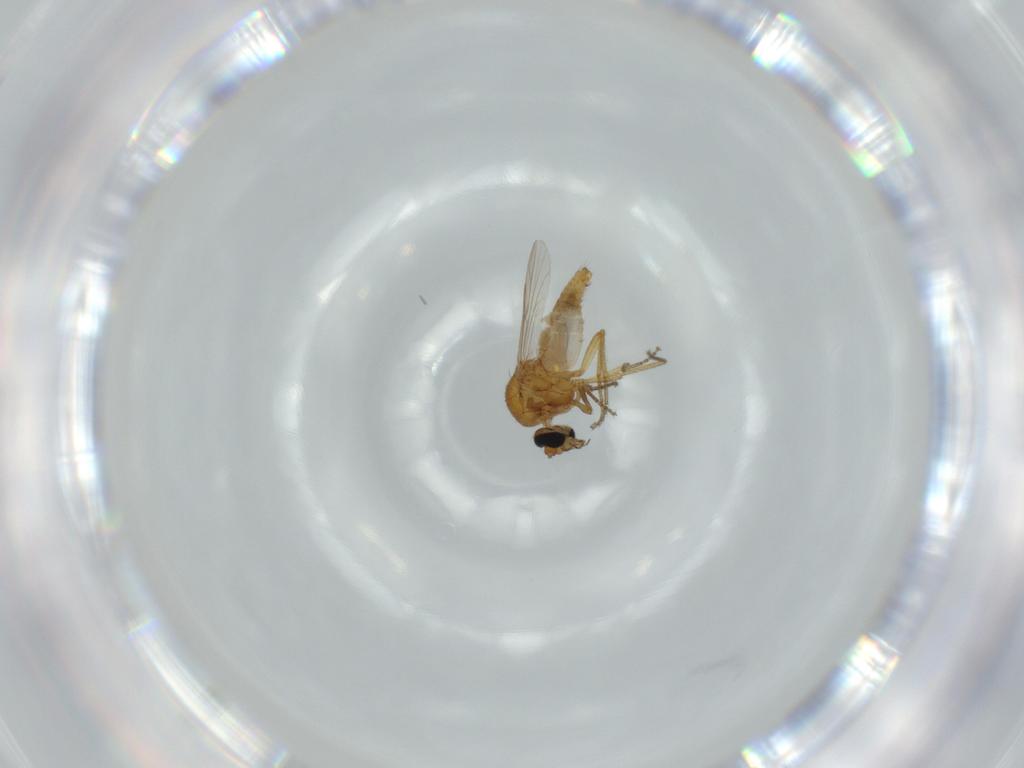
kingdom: Animalia
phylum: Arthropoda
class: Insecta
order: Diptera
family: Ceratopogonidae
